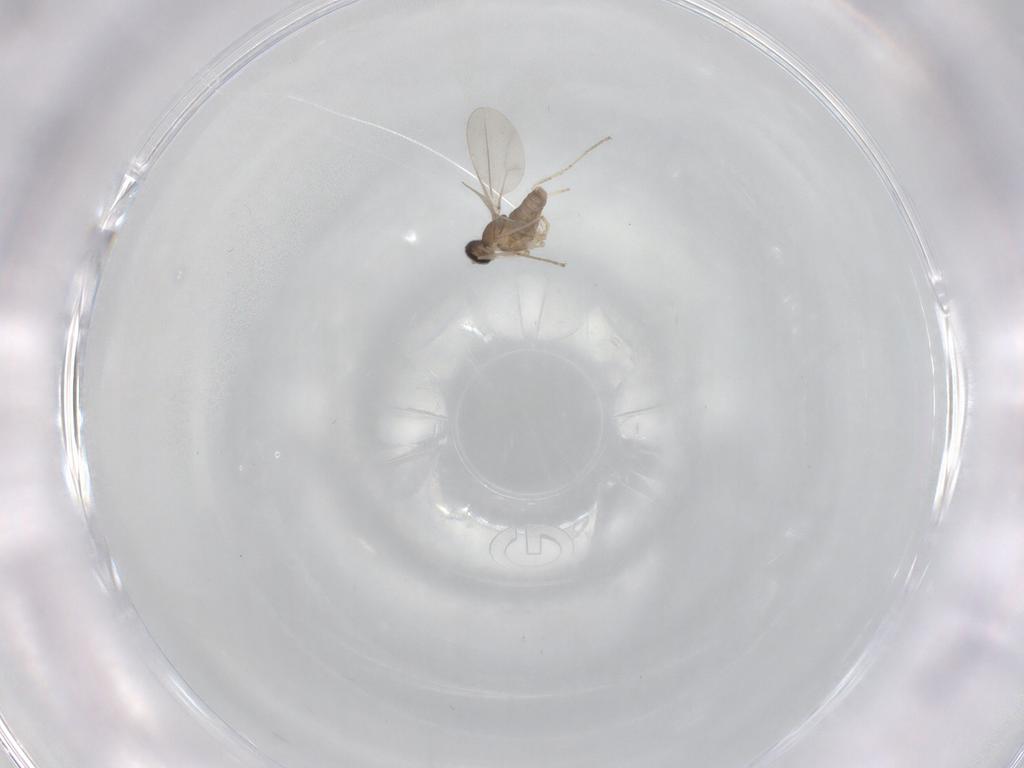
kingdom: Animalia
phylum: Arthropoda
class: Insecta
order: Diptera
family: Cecidomyiidae
